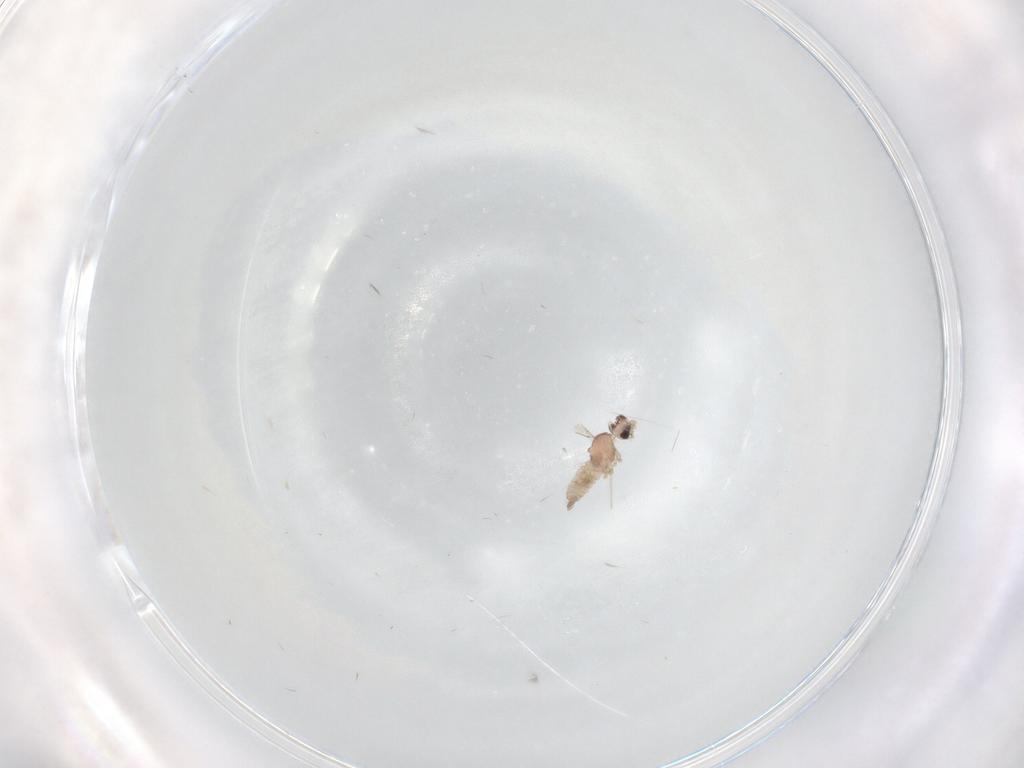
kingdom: Animalia
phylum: Arthropoda
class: Insecta
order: Diptera
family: Cecidomyiidae
